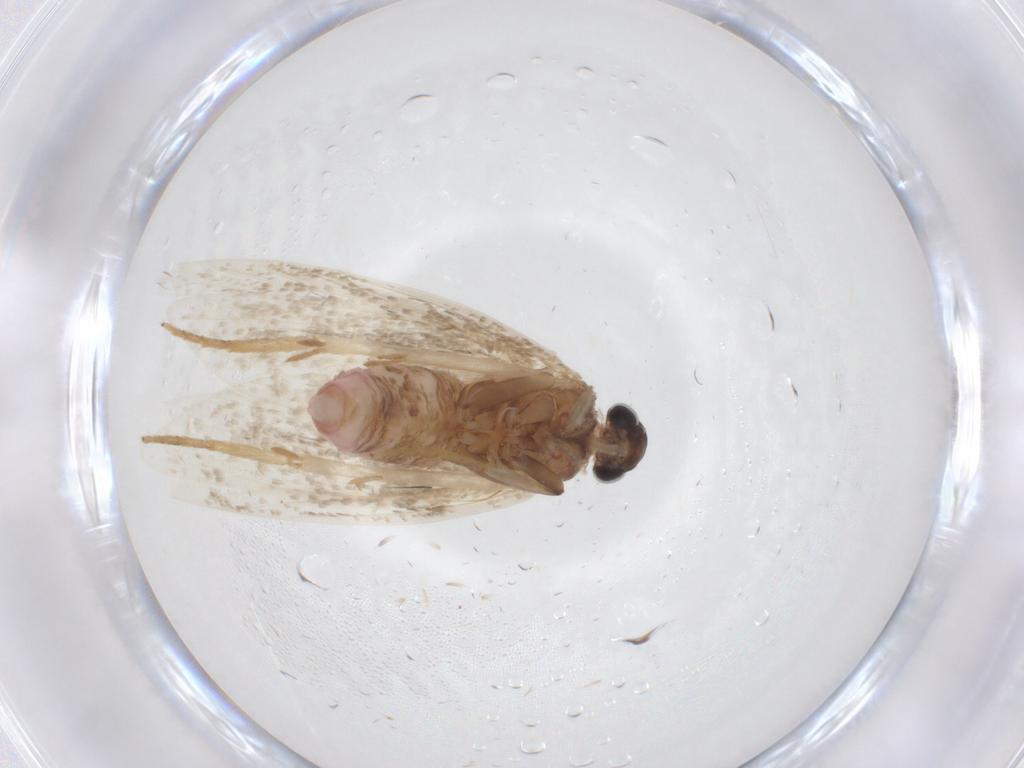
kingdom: Animalia
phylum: Arthropoda
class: Insecta
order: Lepidoptera
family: Autostichidae
